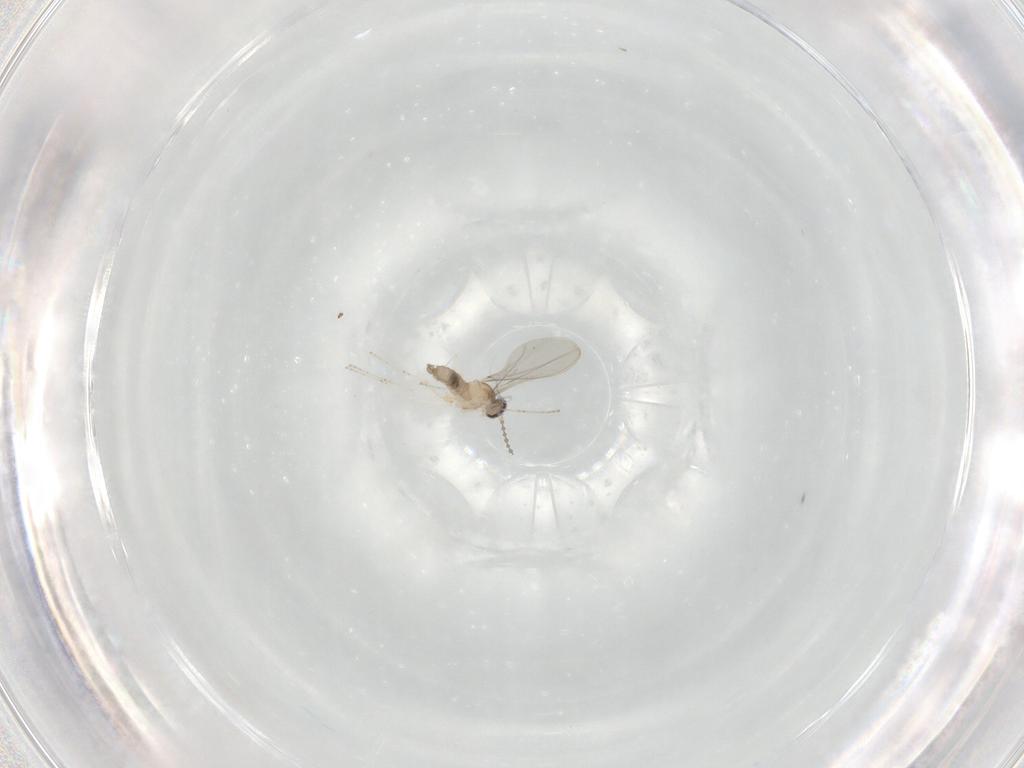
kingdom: Animalia
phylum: Arthropoda
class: Insecta
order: Diptera
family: Cecidomyiidae
